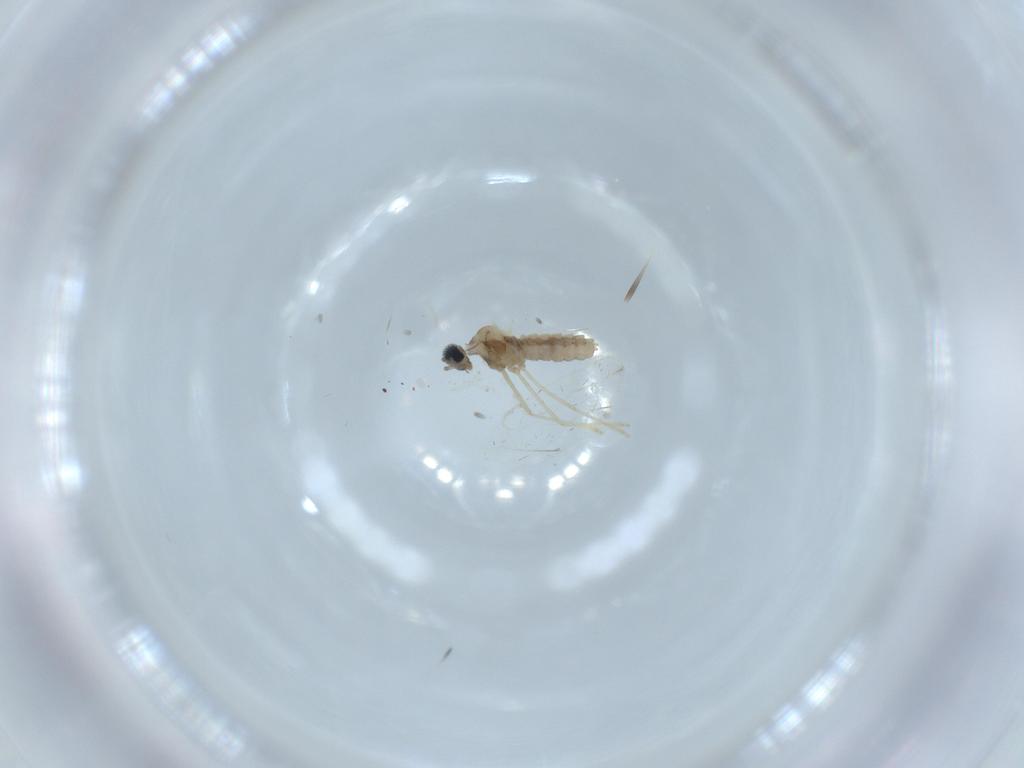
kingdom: Animalia
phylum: Arthropoda
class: Insecta
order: Diptera
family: Cecidomyiidae
